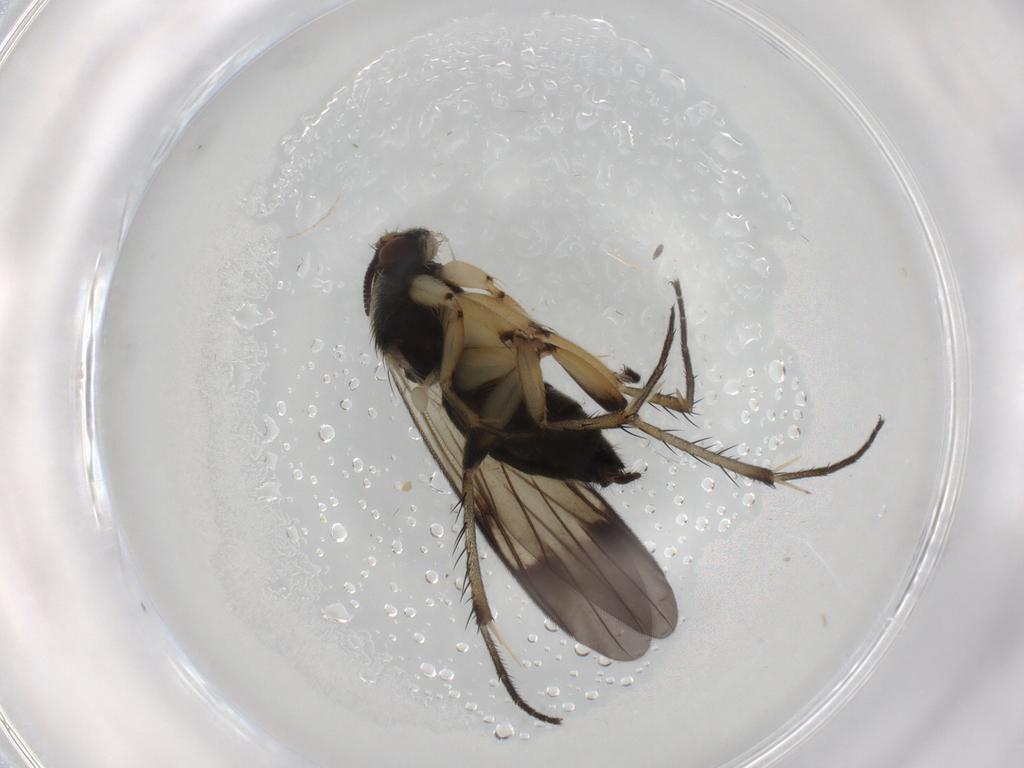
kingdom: Animalia
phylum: Arthropoda
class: Insecta
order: Diptera
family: Mycetophilidae
